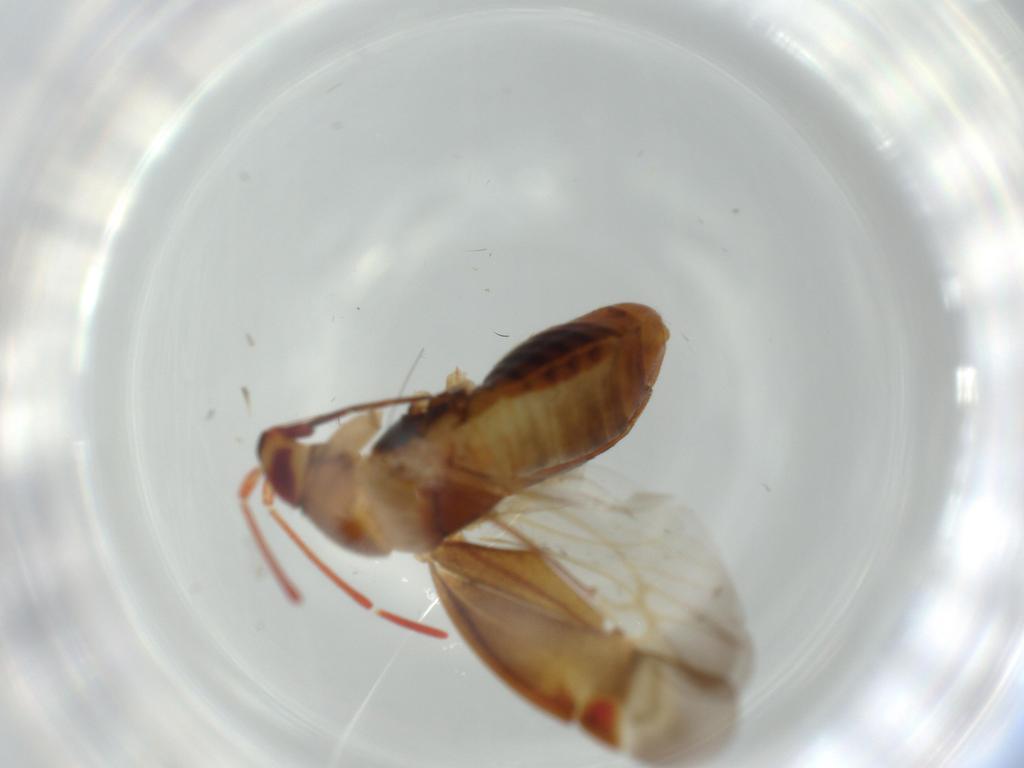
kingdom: Animalia
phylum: Arthropoda
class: Insecta
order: Hemiptera
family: Miridae
